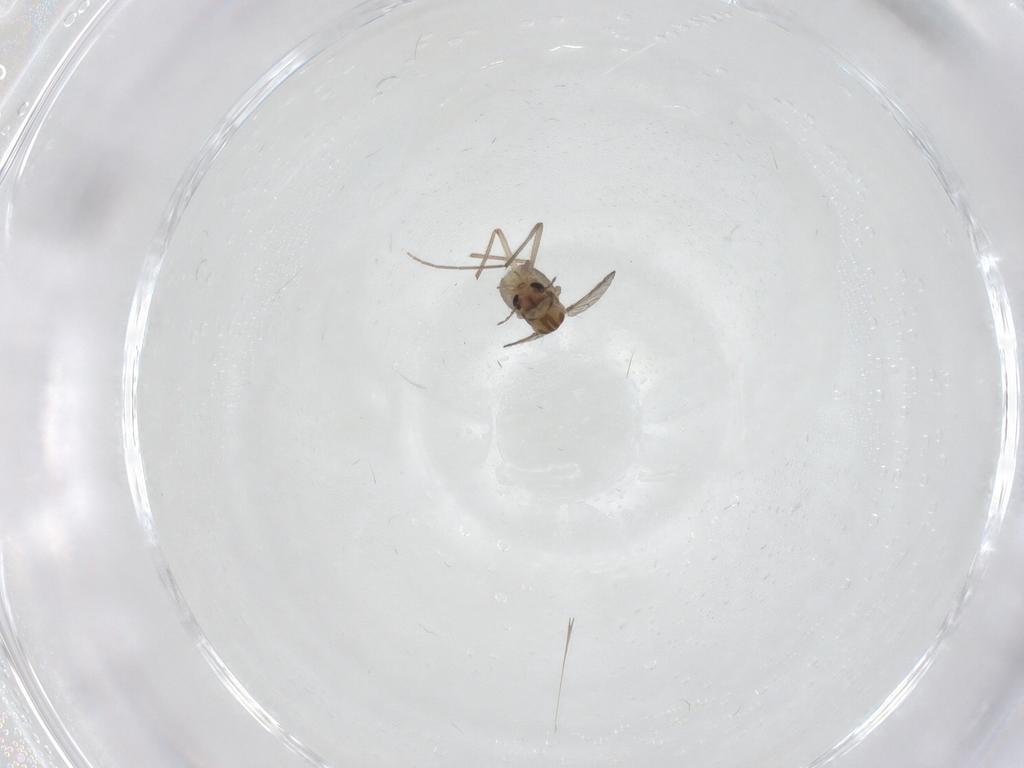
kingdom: Animalia
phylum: Arthropoda
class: Insecta
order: Diptera
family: Chironomidae
